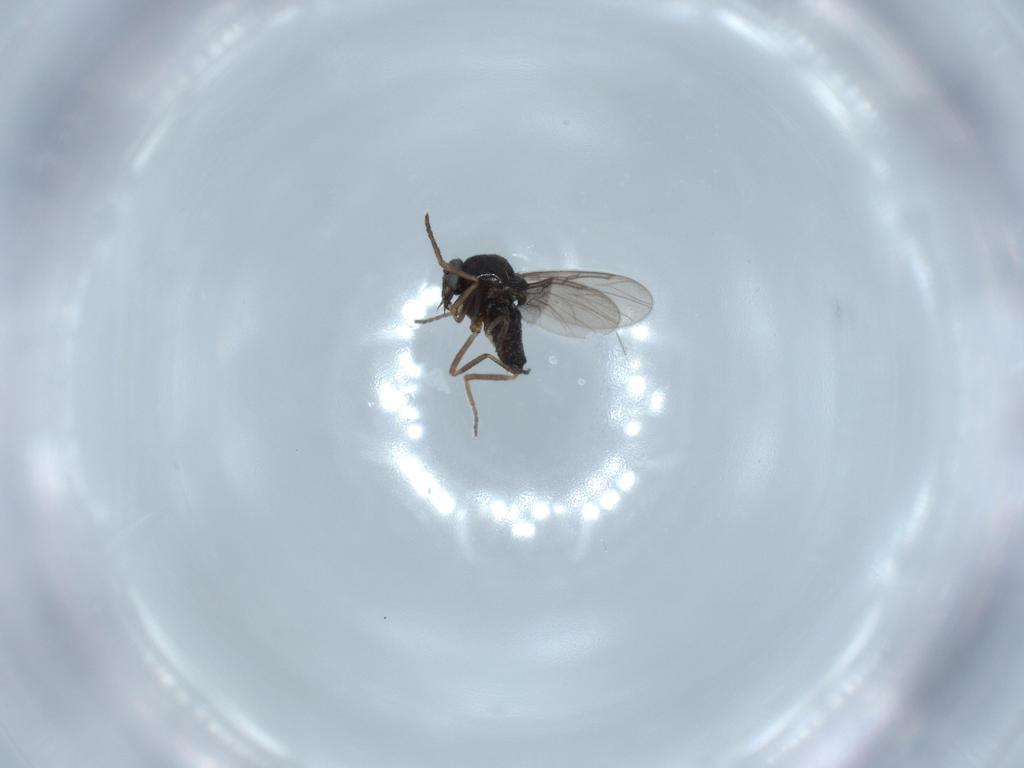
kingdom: Animalia
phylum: Arthropoda
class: Insecta
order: Diptera
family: Ceratopogonidae
